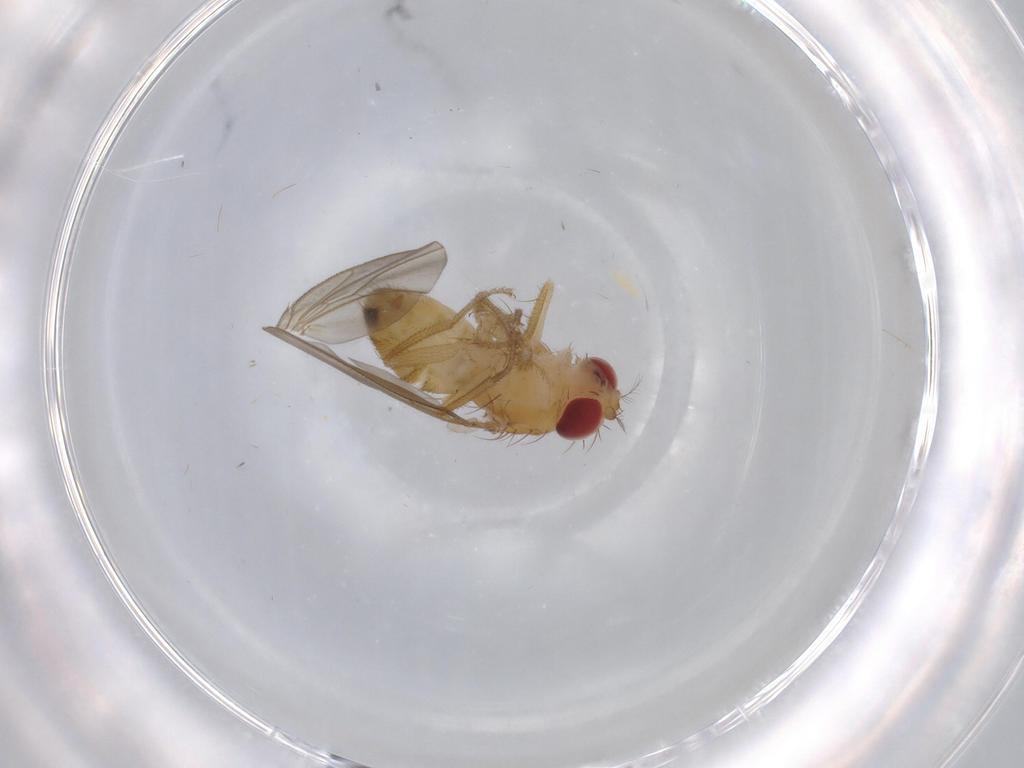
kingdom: Animalia
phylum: Arthropoda
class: Insecta
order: Diptera
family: Drosophilidae
